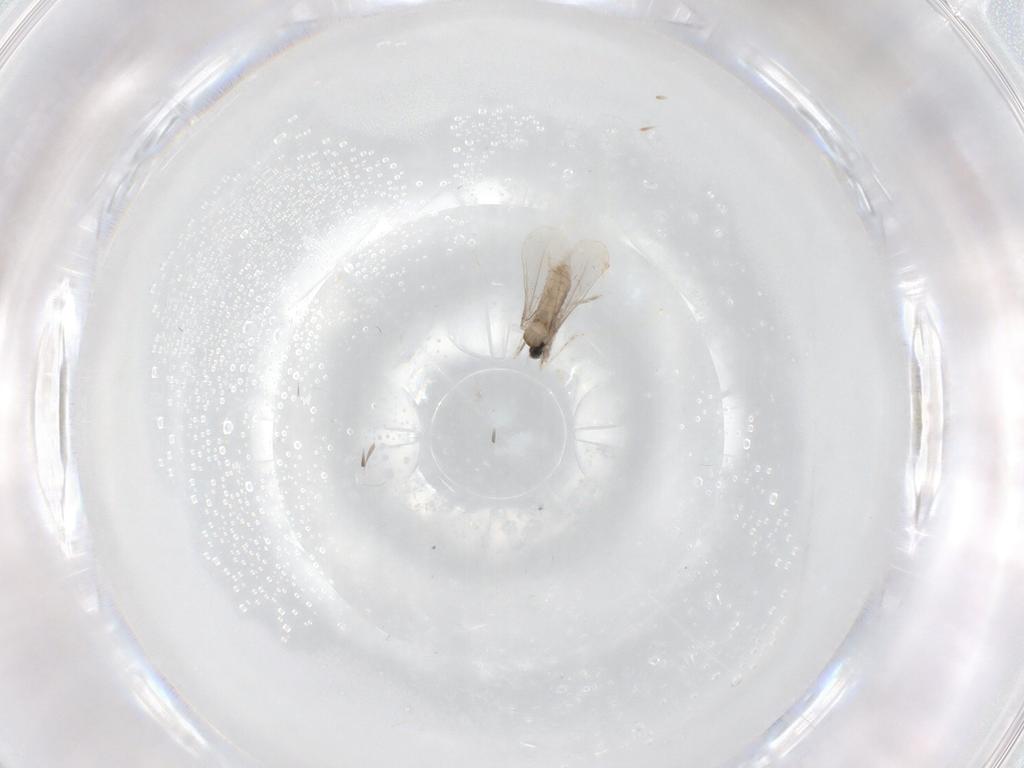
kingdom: Animalia
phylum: Arthropoda
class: Insecta
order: Diptera
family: Cecidomyiidae
